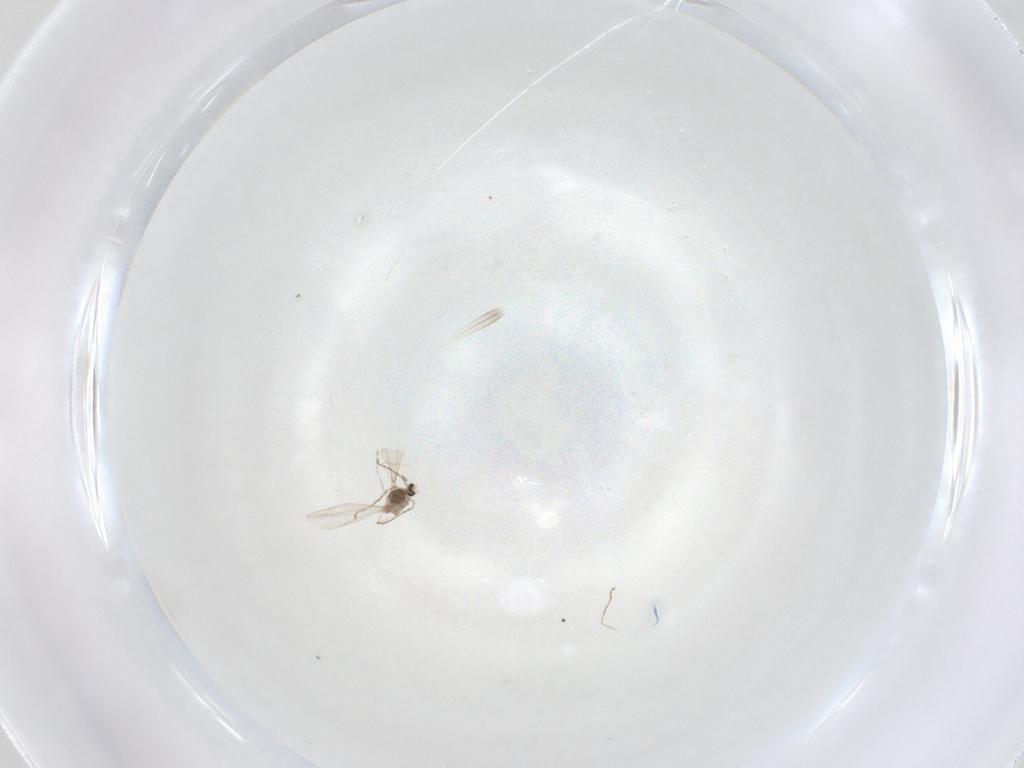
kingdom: Animalia
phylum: Arthropoda
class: Insecta
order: Diptera
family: Cecidomyiidae
